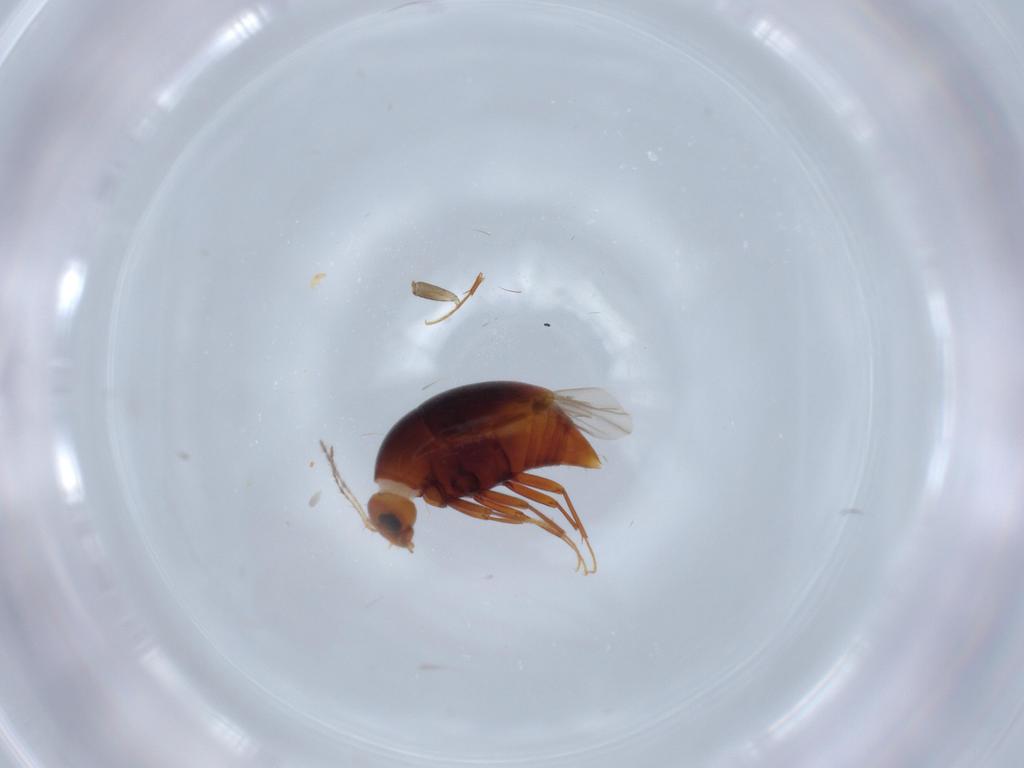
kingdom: Animalia
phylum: Arthropoda
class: Insecta
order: Coleoptera
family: Staphylinidae
